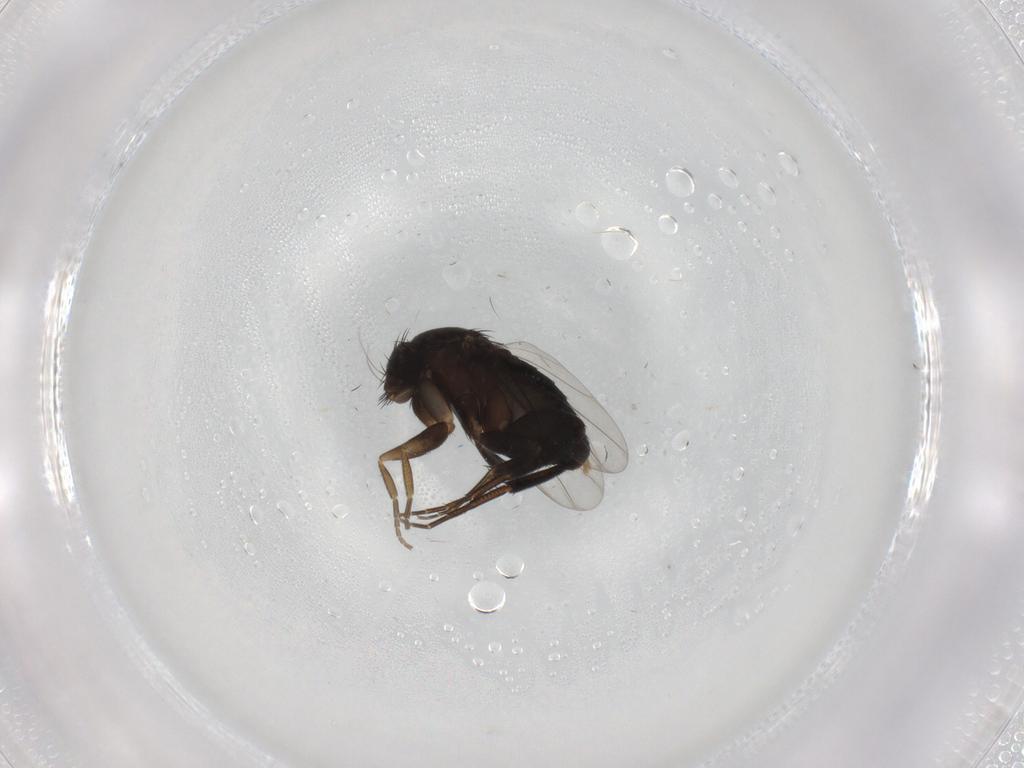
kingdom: Animalia
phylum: Arthropoda
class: Insecta
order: Diptera
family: Phoridae
